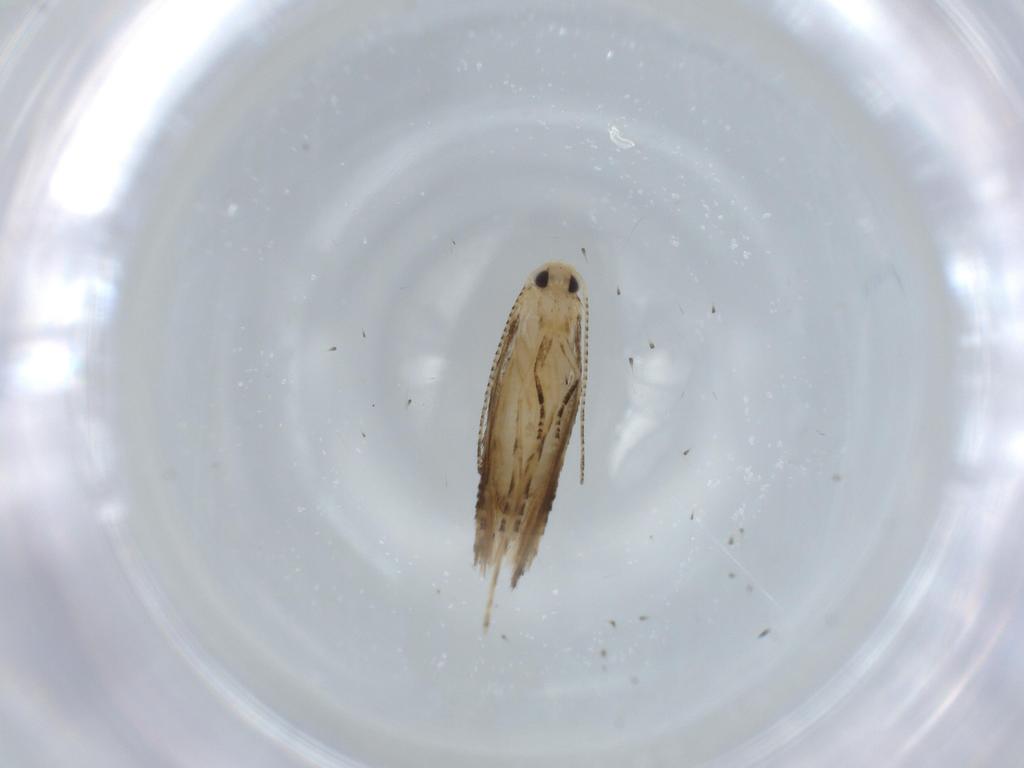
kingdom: Animalia
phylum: Arthropoda
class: Insecta
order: Lepidoptera
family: Bucculatricidae
